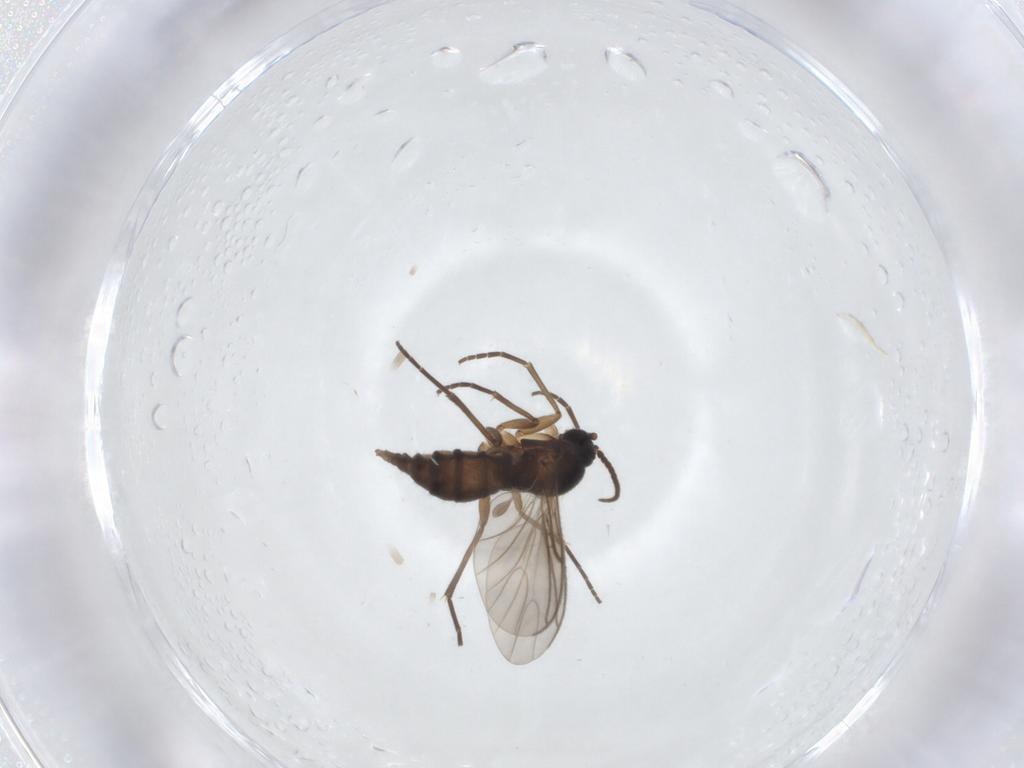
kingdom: Animalia
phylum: Arthropoda
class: Insecta
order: Diptera
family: Sciaridae
